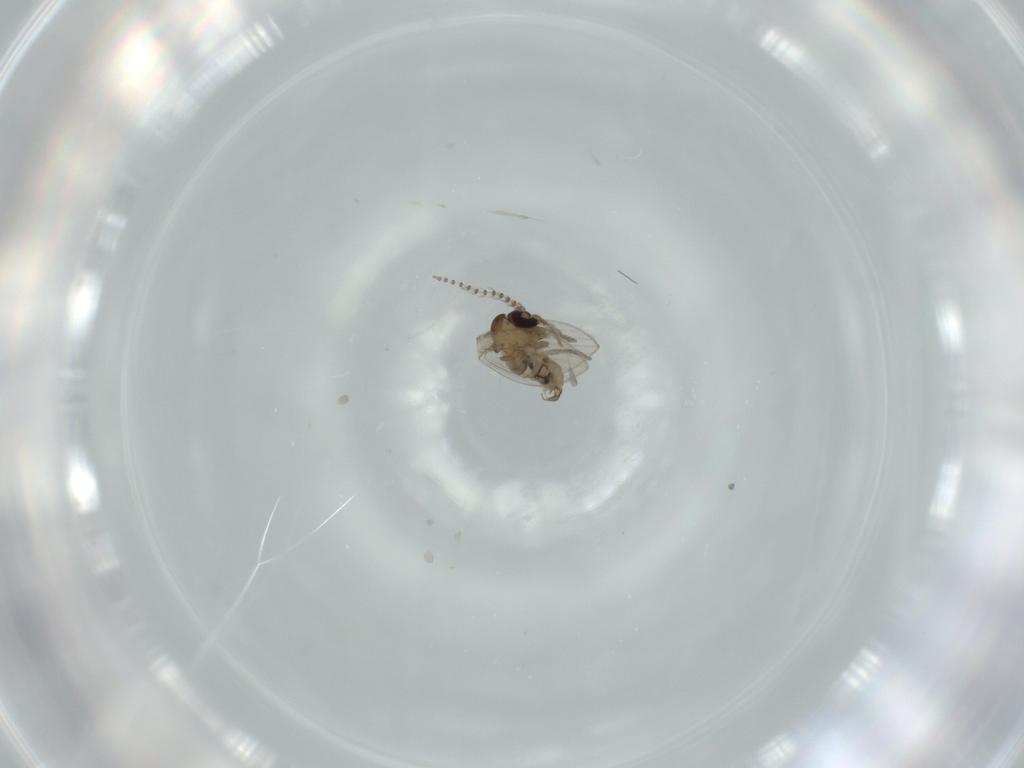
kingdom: Animalia
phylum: Arthropoda
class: Insecta
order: Diptera
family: Psychodidae
